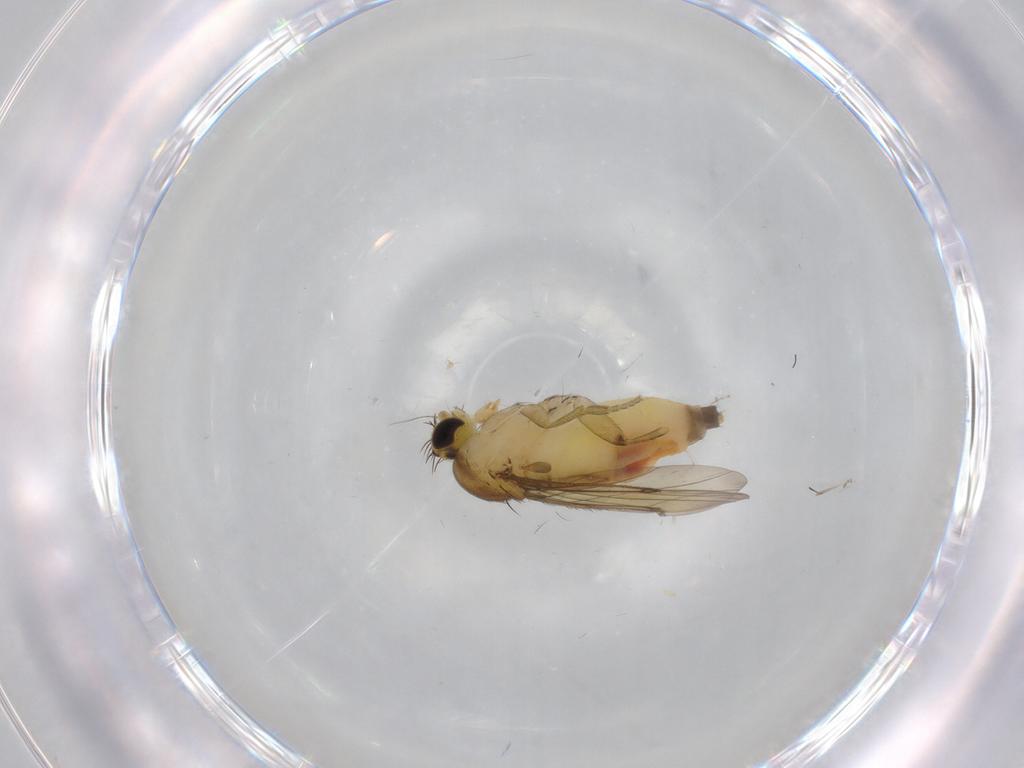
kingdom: Animalia
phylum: Arthropoda
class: Insecta
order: Diptera
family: Phoridae
